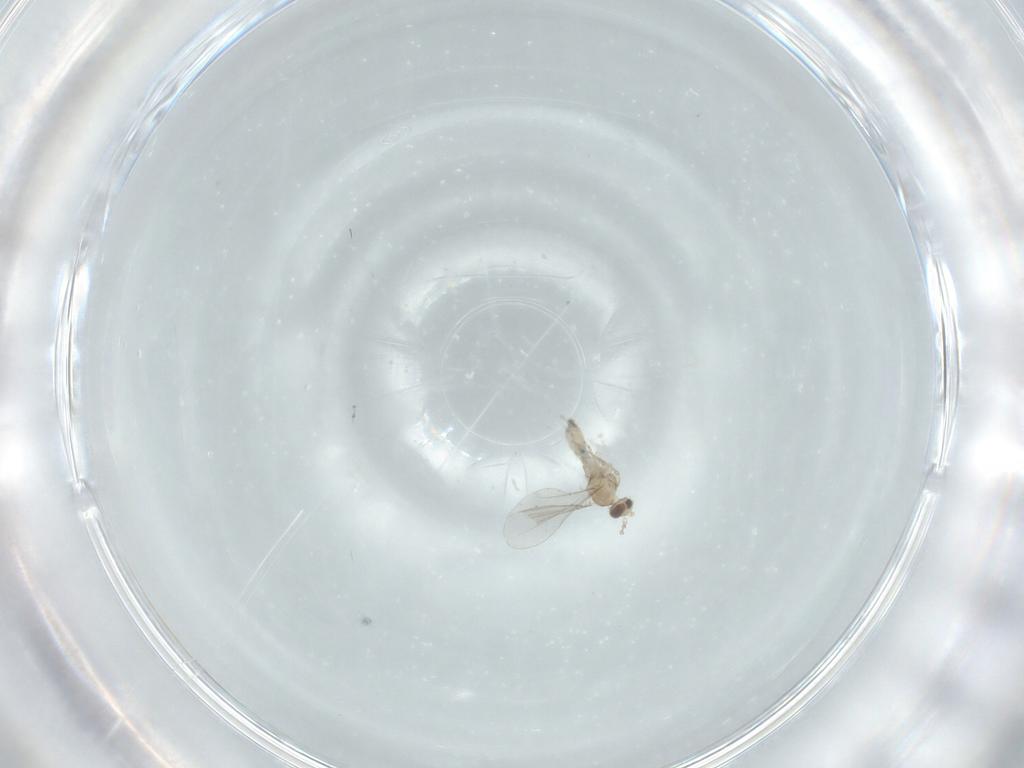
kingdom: Animalia
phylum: Arthropoda
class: Insecta
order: Diptera
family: Cecidomyiidae
